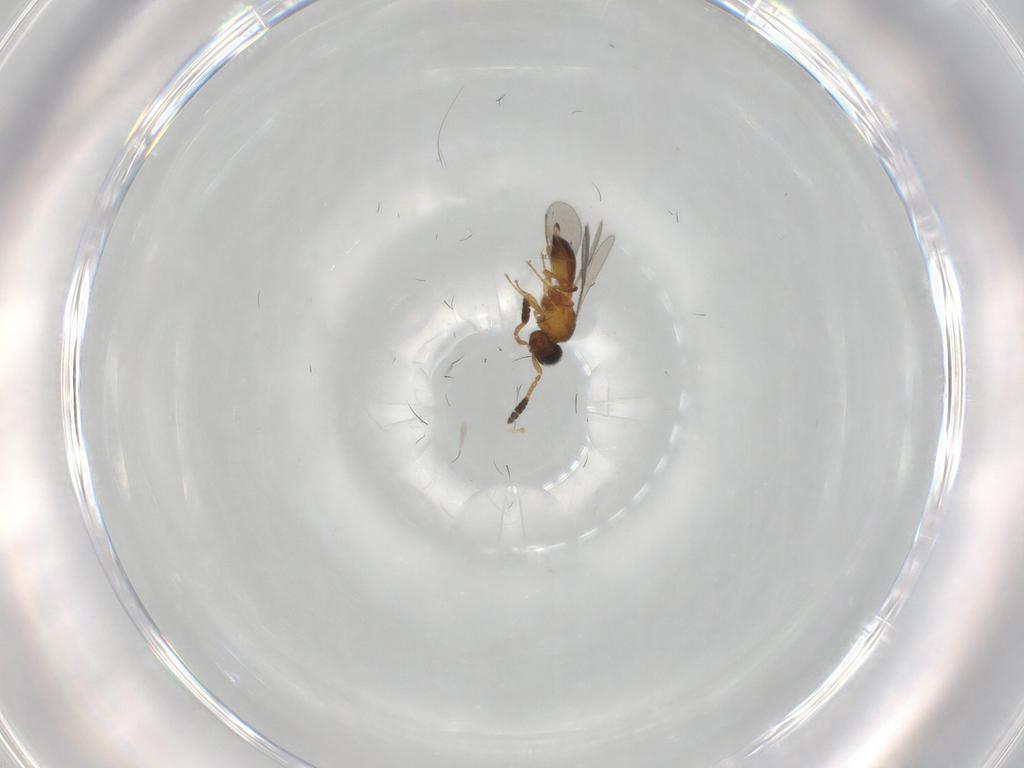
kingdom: Animalia
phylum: Arthropoda
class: Insecta
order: Hymenoptera
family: Scelionidae
